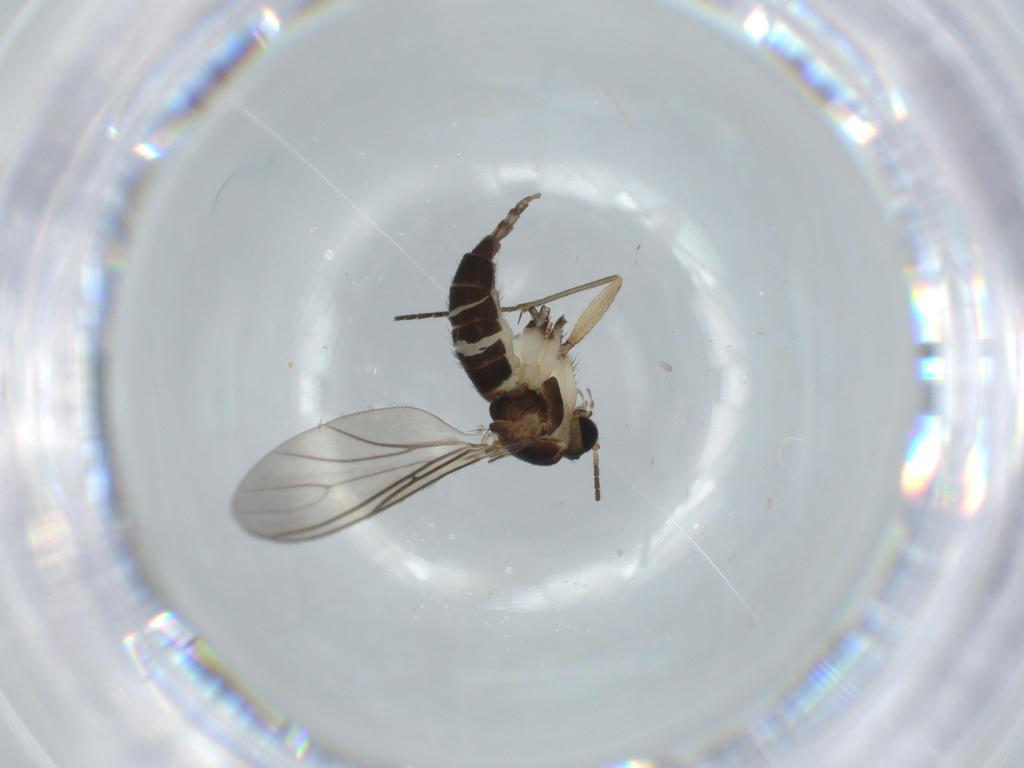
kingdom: Animalia
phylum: Arthropoda
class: Insecta
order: Diptera
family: Sciaridae
